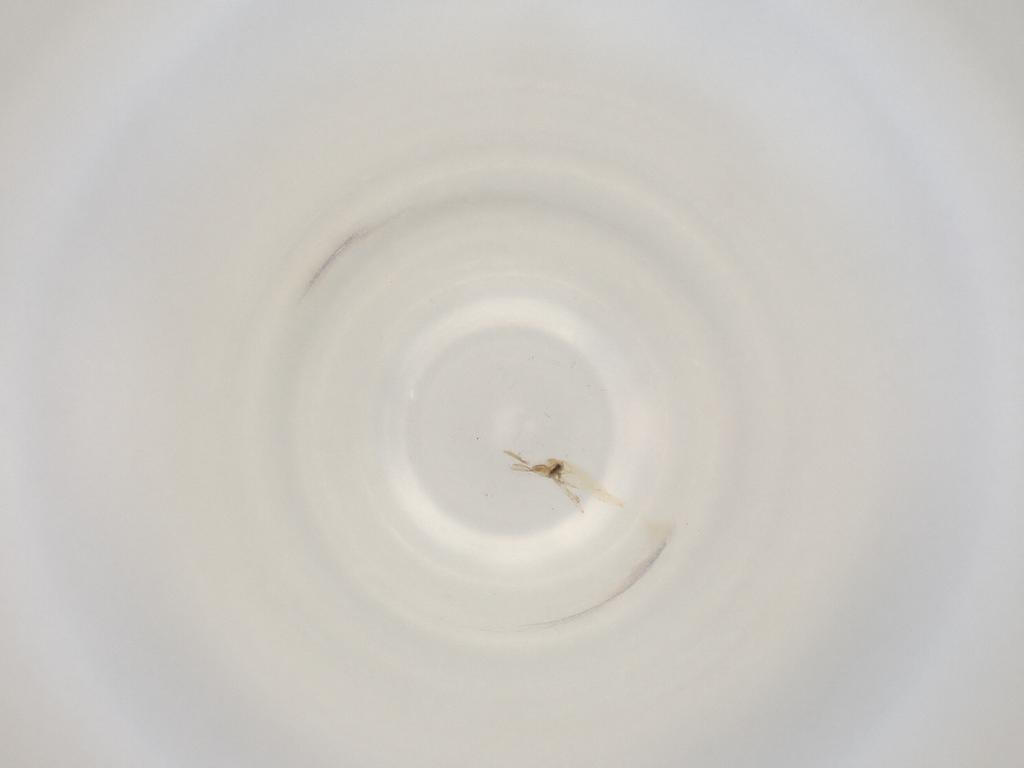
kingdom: Animalia
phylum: Arthropoda
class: Insecta
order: Diptera
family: Cecidomyiidae
